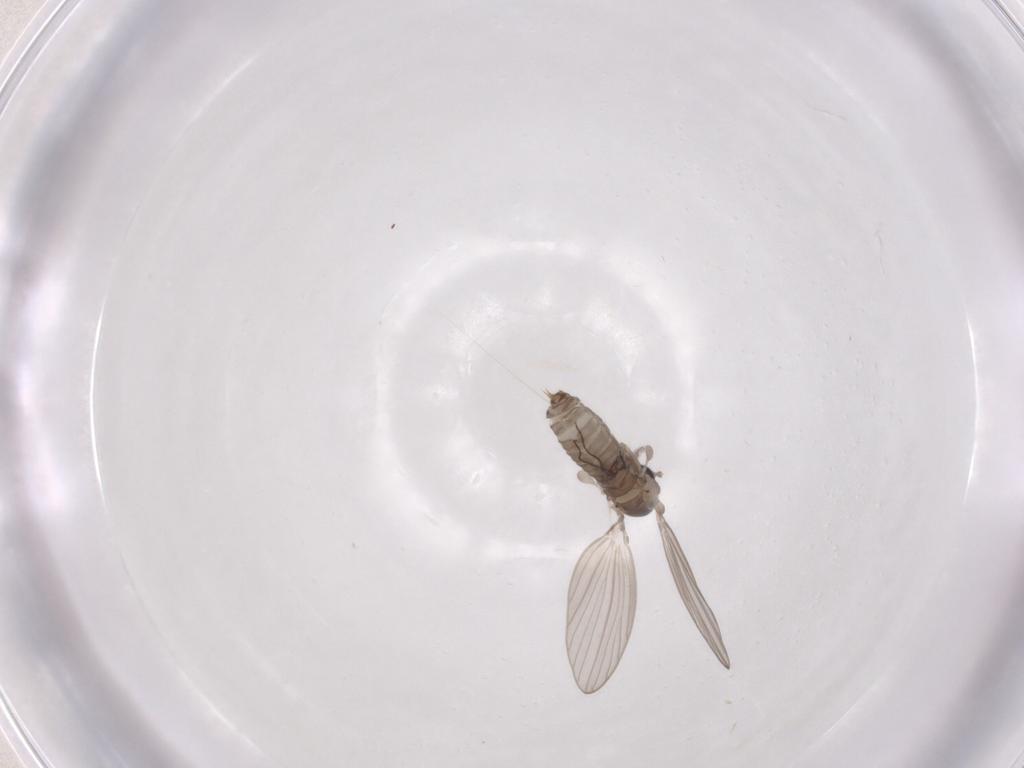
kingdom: Animalia
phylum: Arthropoda
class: Insecta
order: Diptera
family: Psychodidae
